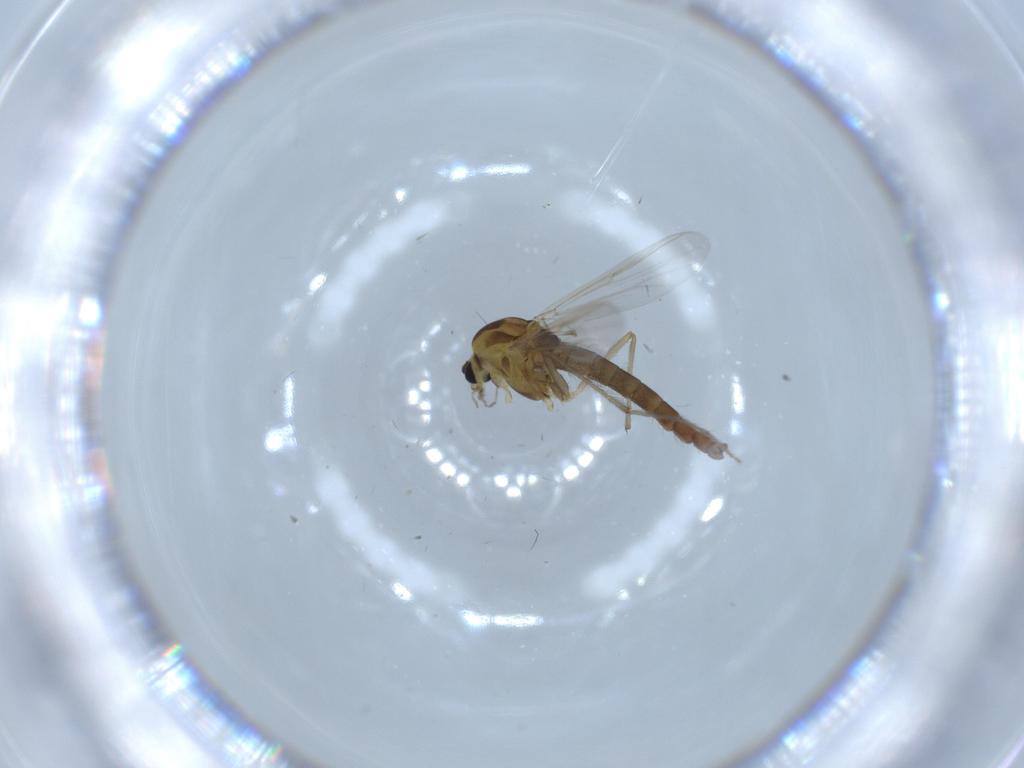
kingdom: Animalia
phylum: Arthropoda
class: Insecta
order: Diptera
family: Chironomidae
